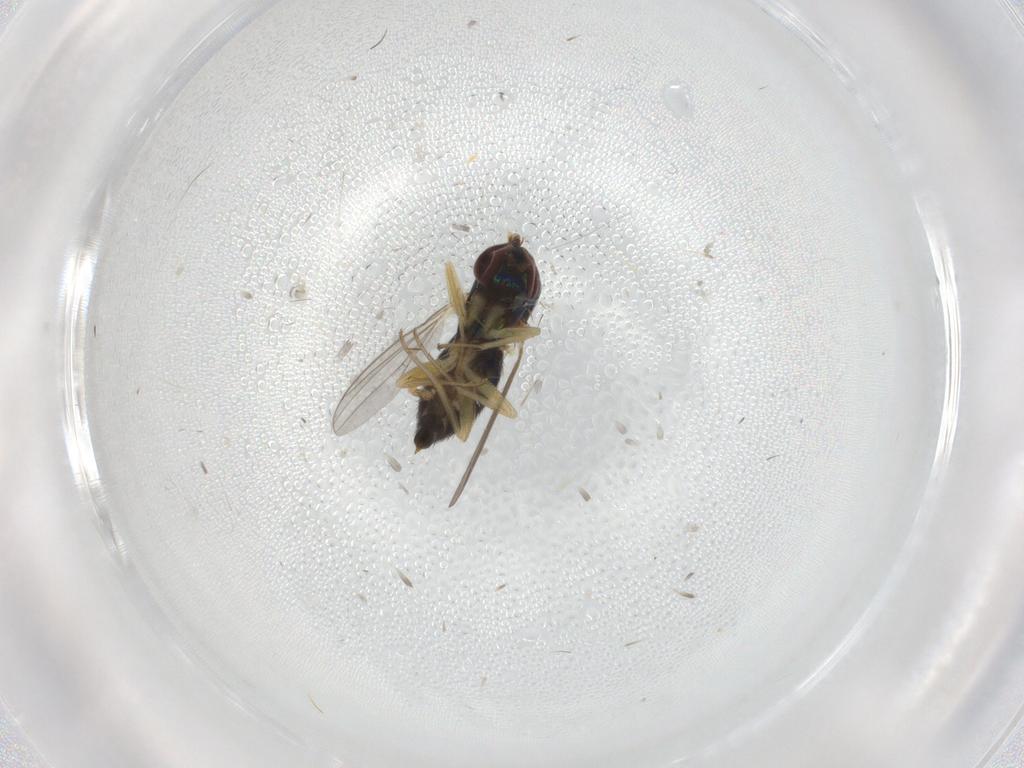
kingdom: Animalia
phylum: Arthropoda
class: Insecta
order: Diptera
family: Dolichopodidae
